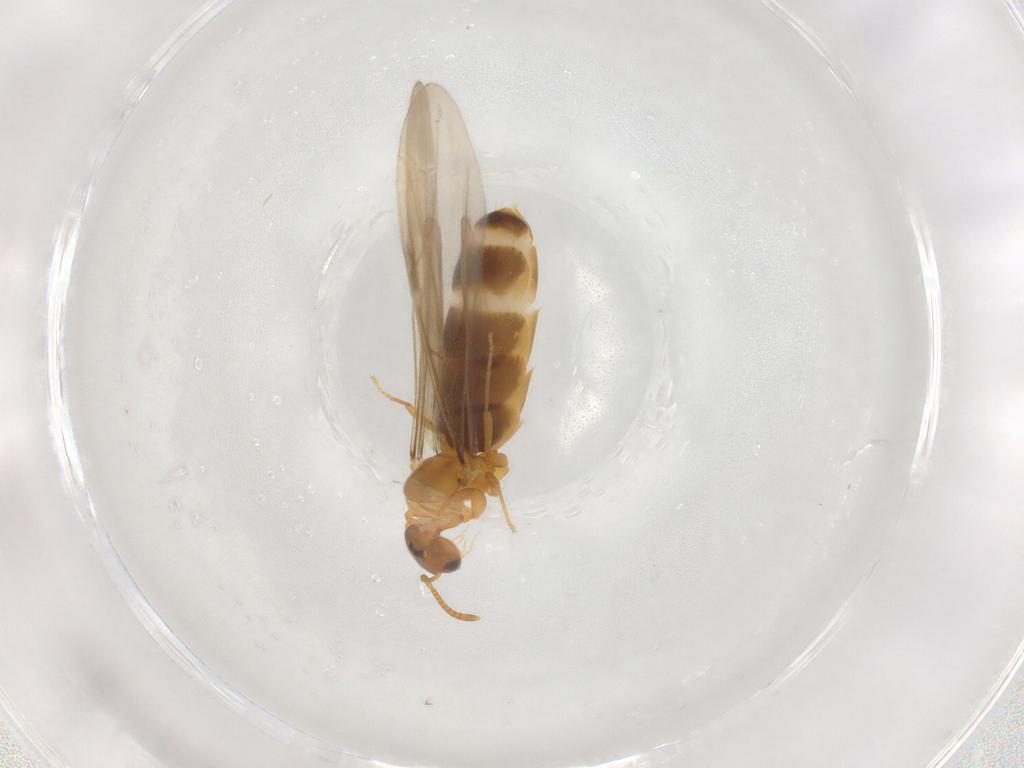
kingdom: Animalia
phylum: Arthropoda
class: Insecta
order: Hymenoptera
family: Formicidae
